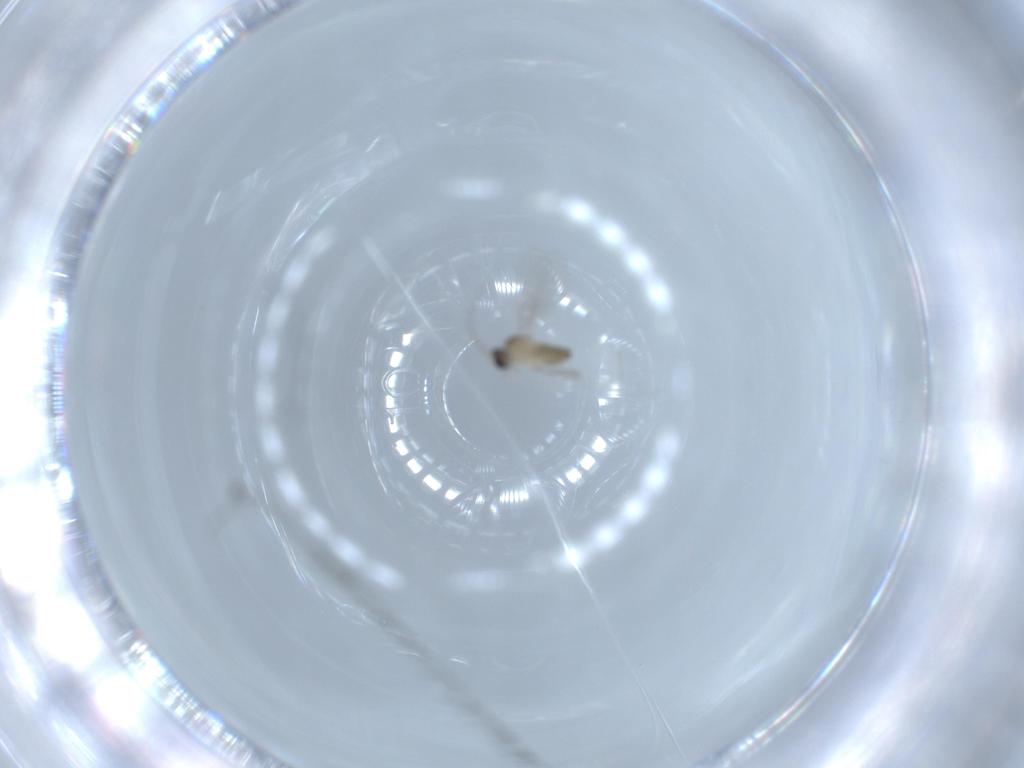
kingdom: Animalia
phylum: Arthropoda
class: Insecta
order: Diptera
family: Sciaridae
